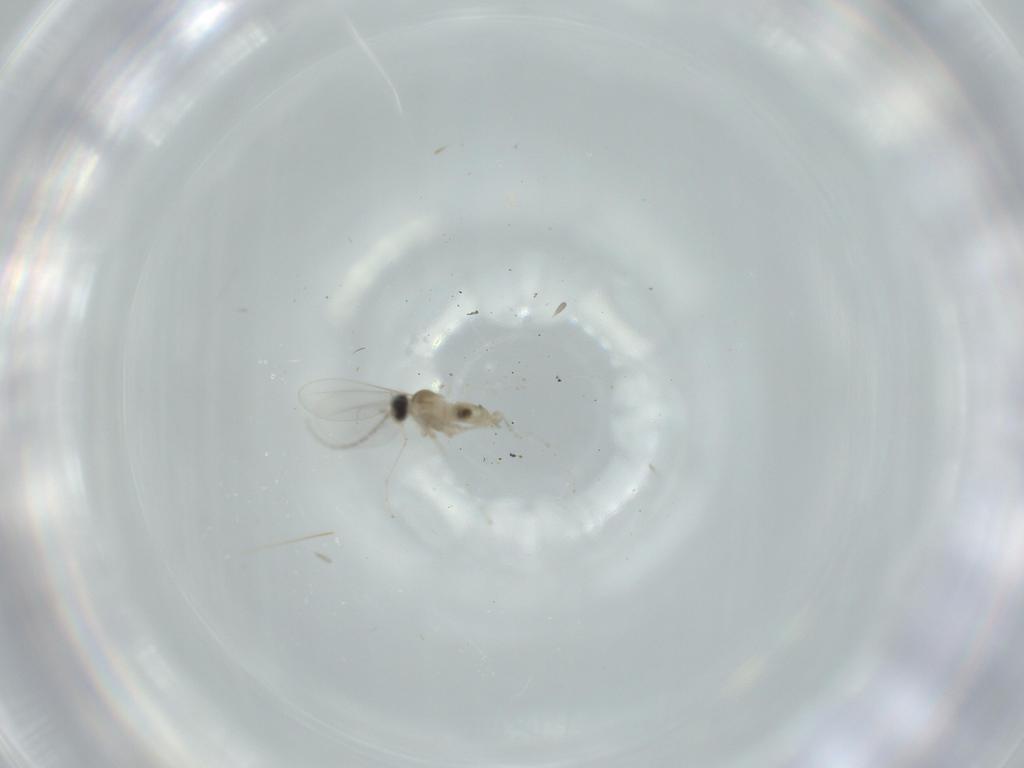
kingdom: Animalia
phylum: Arthropoda
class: Insecta
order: Diptera
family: Cecidomyiidae
